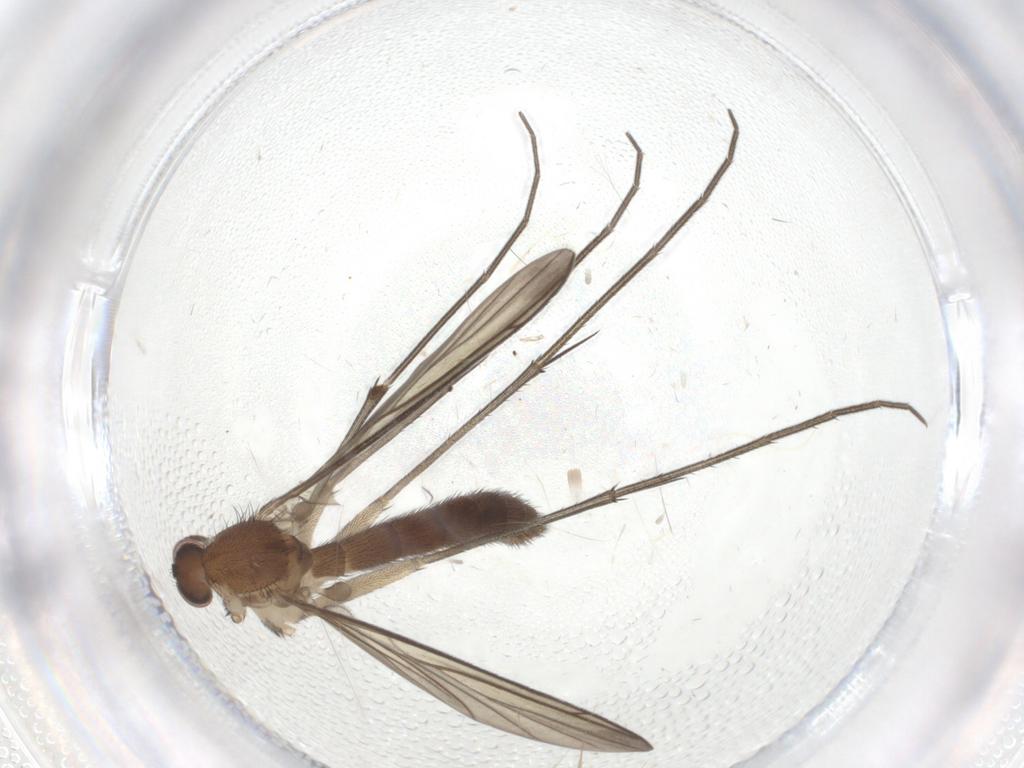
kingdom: Animalia
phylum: Arthropoda
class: Insecta
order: Diptera
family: Keroplatidae
